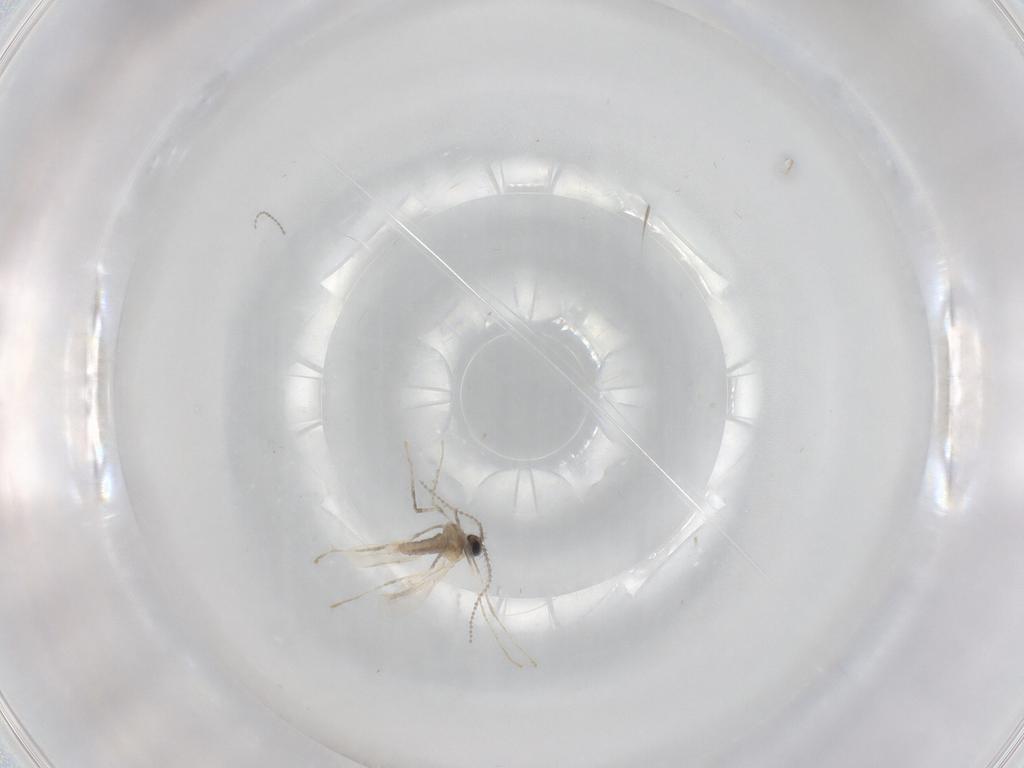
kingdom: Animalia
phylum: Arthropoda
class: Insecta
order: Diptera
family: Cecidomyiidae
